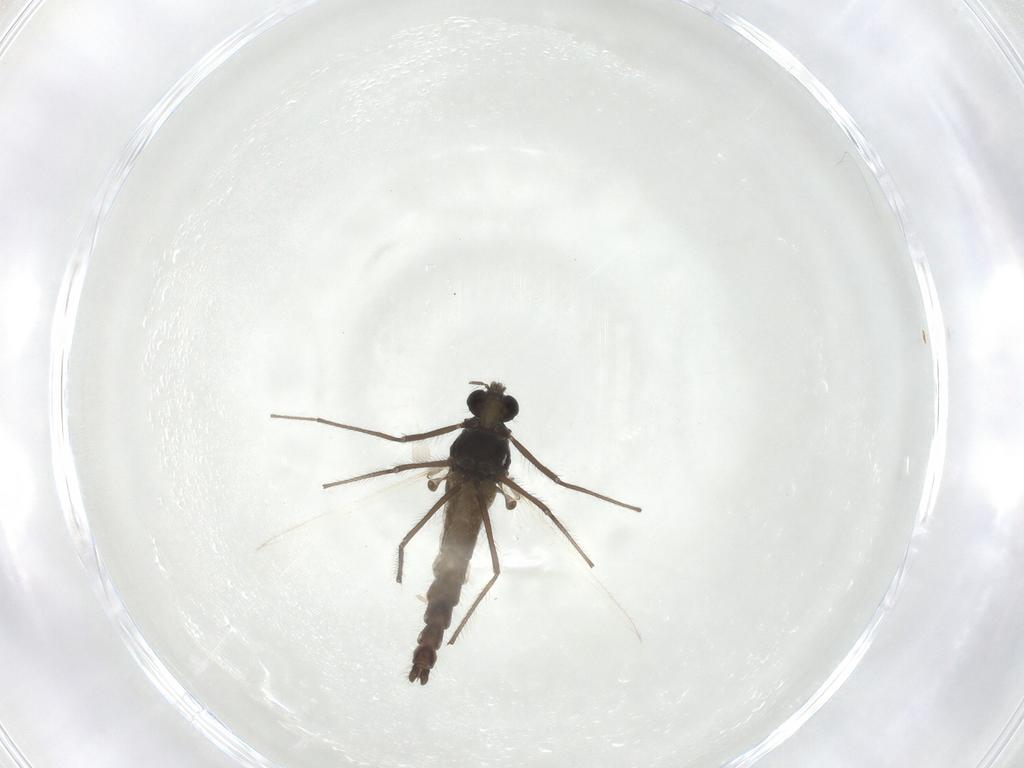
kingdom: Animalia
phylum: Arthropoda
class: Insecta
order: Diptera
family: Chironomidae
